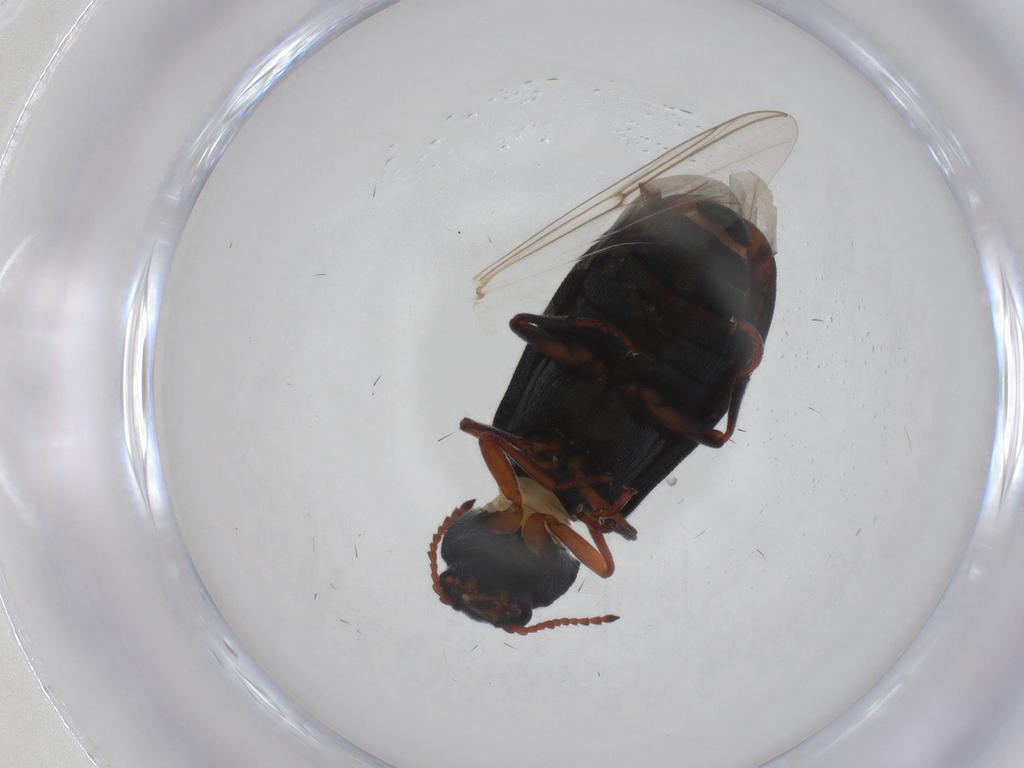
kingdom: Animalia
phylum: Arthropoda
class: Insecta
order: Coleoptera
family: Melyridae
